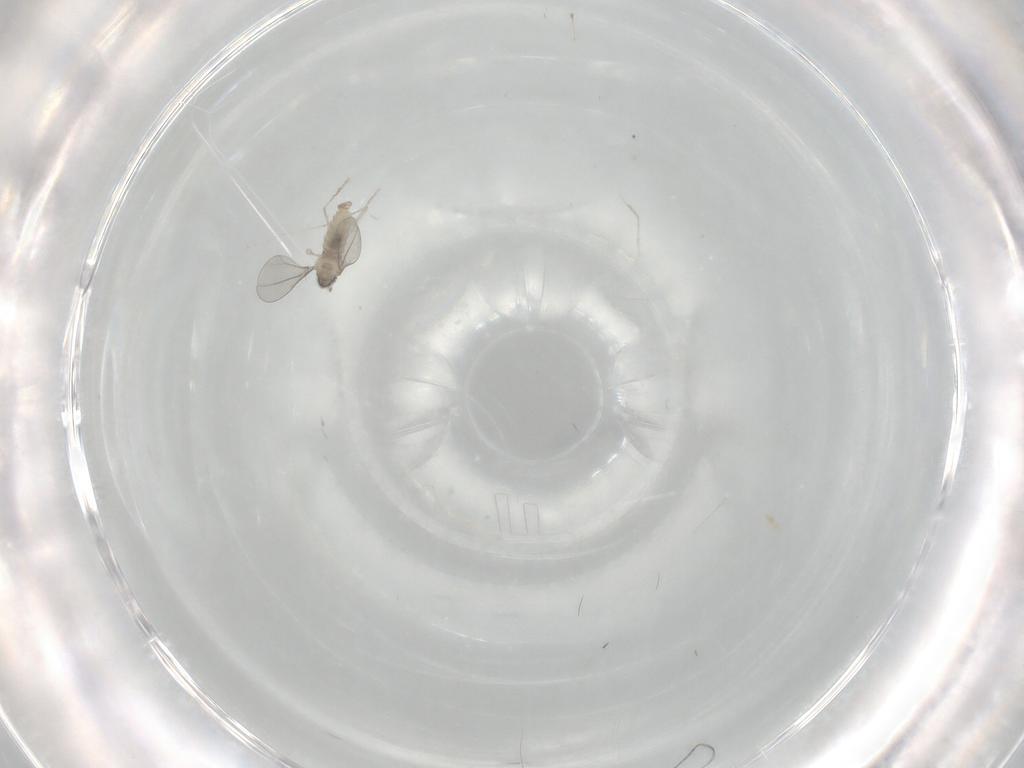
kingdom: Animalia
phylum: Arthropoda
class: Insecta
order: Diptera
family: Cecidomyiidae
